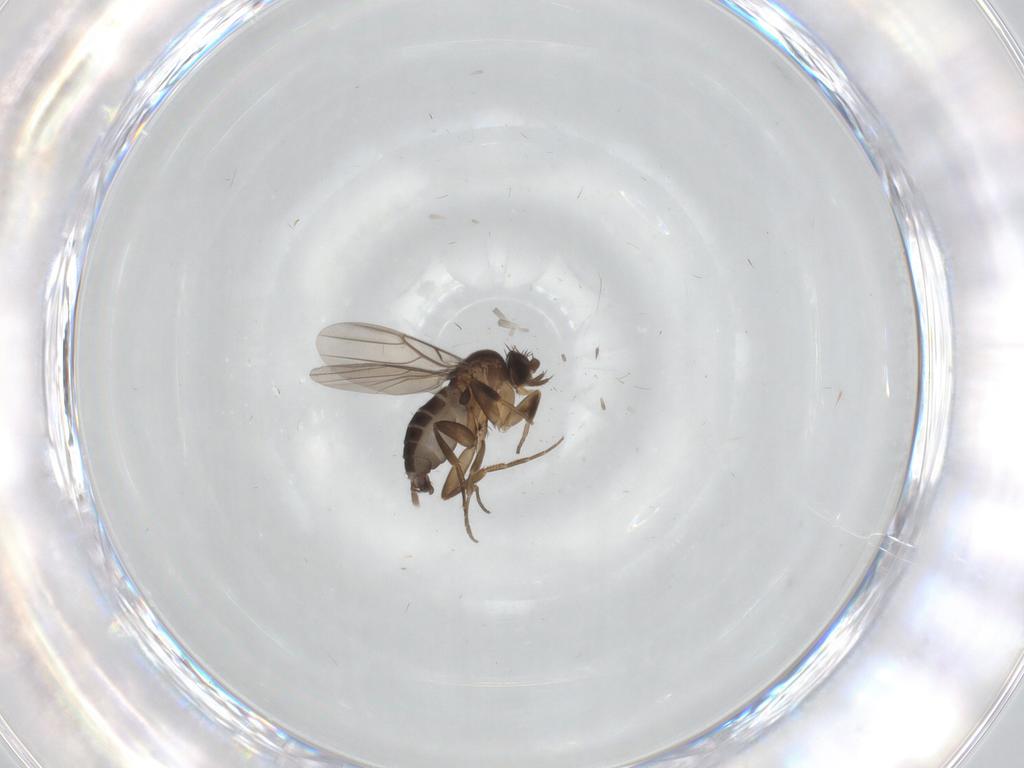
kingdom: Animalia
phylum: Arthropoda
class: Insecta
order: Diptera
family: Phoridae
